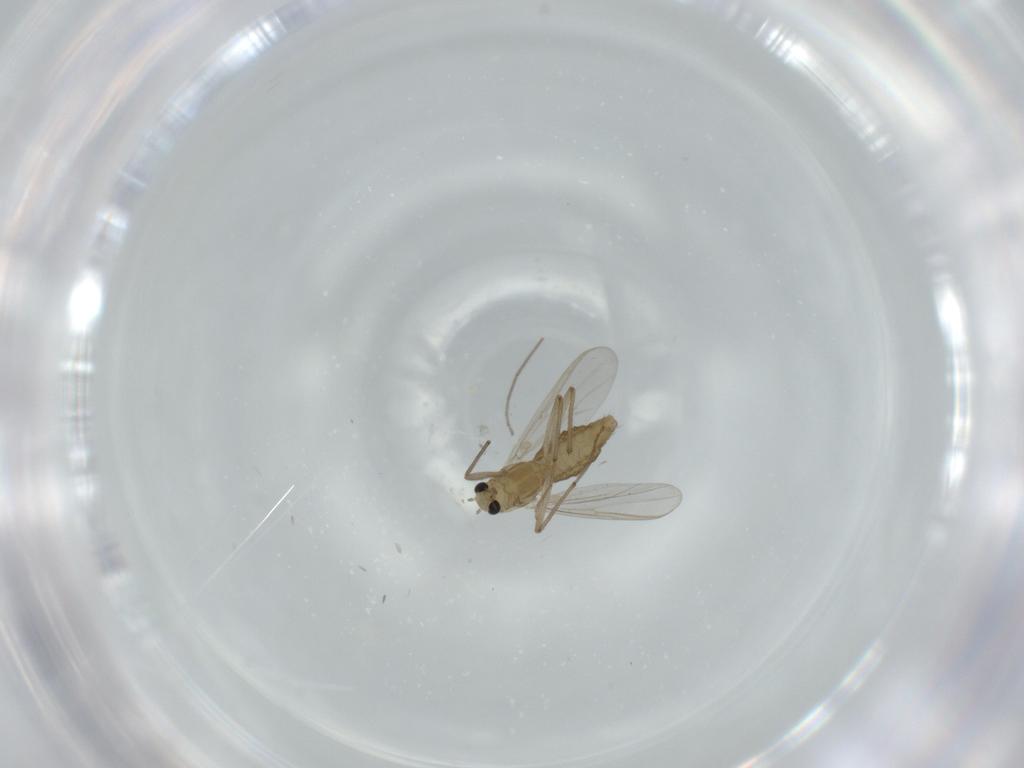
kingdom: Animalia
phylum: Arthropoda
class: Insecta
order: Diptera
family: Chironomidae
